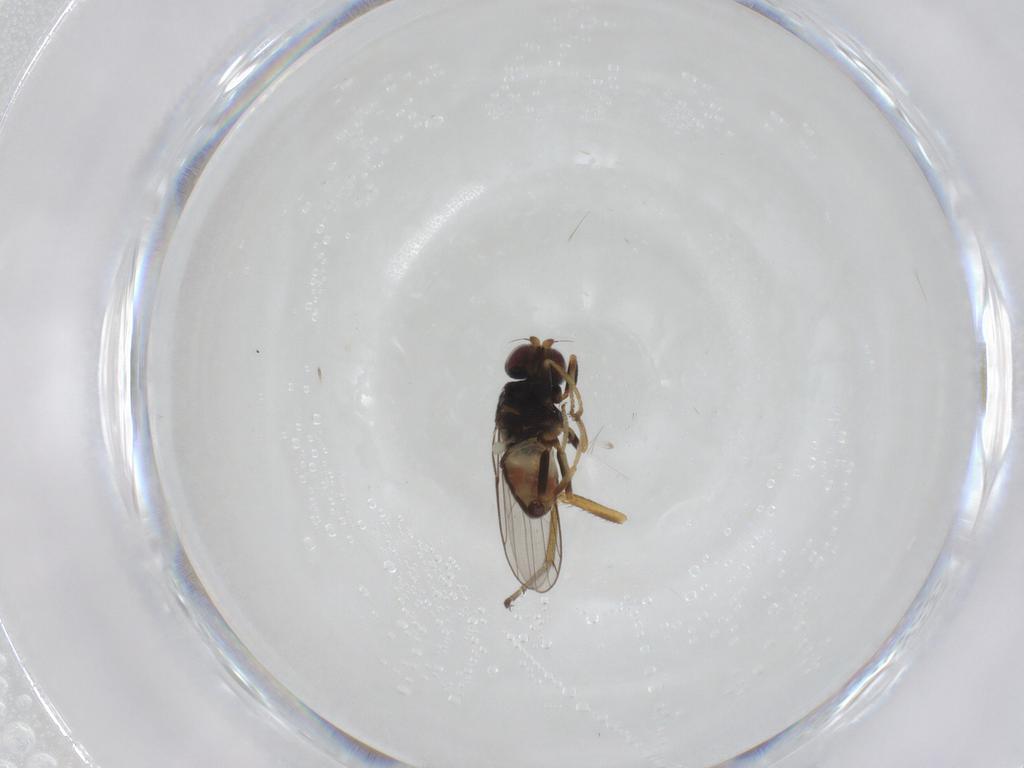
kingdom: Animalia
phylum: Arthropoda
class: Insecta
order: Diptera
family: Chloropidae
